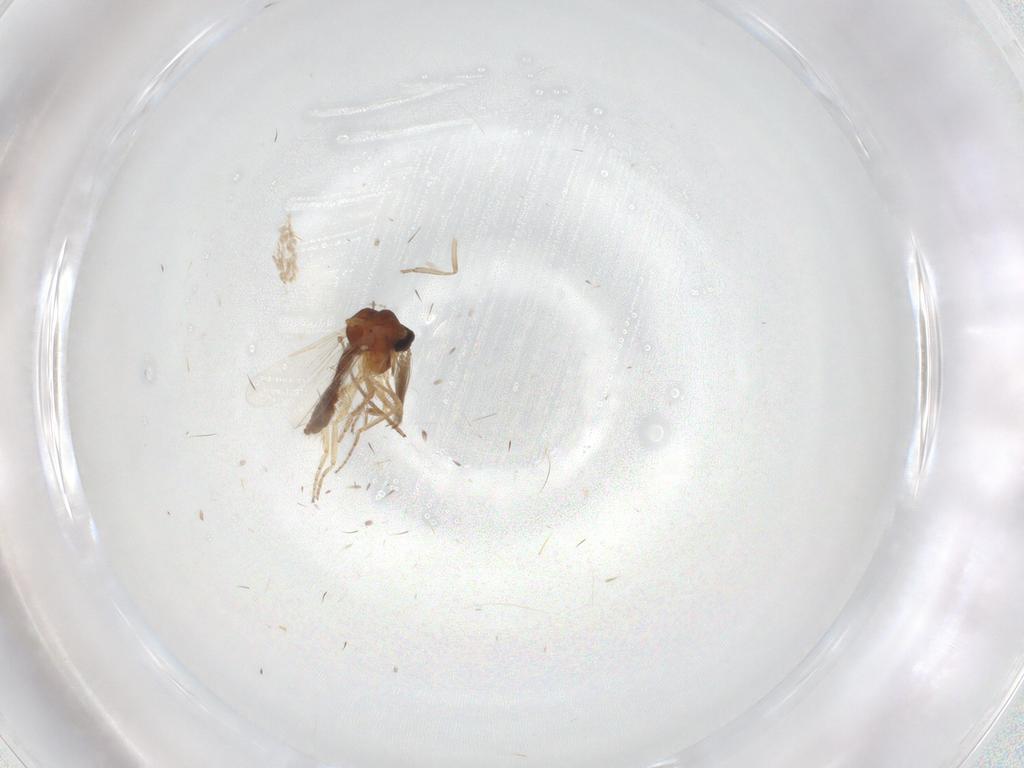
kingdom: Animalia
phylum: Arthropoda
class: Insecta
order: Diptera
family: Ceratopogonidae
